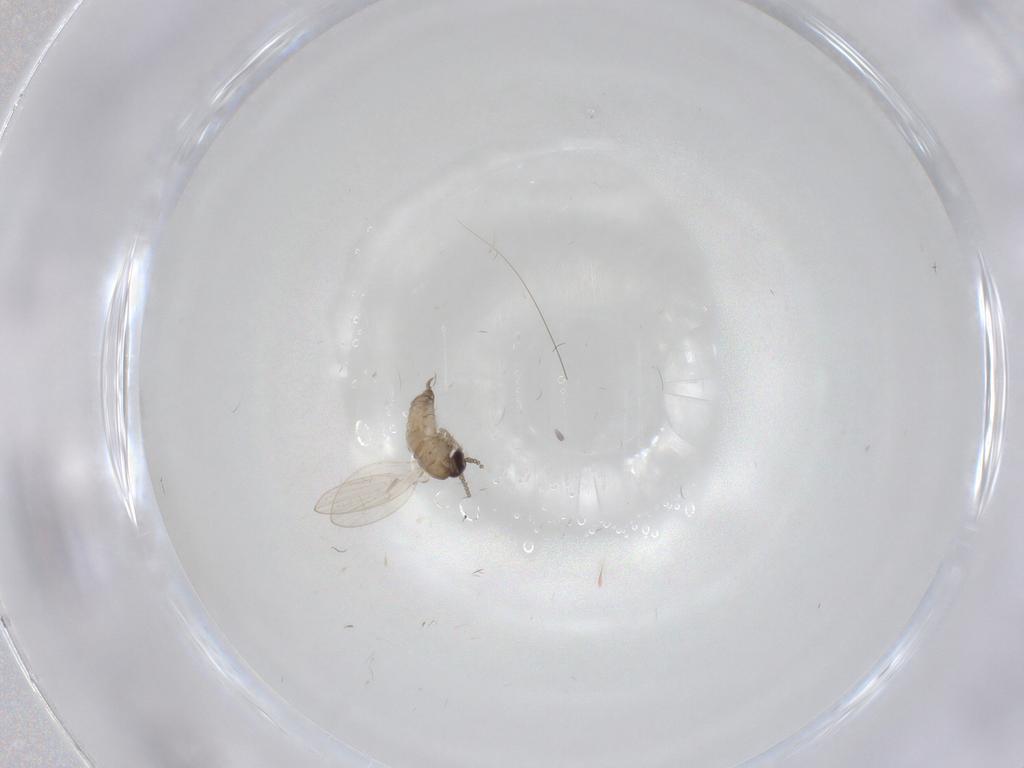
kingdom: Animalia
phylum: Arthropoda
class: Insecta
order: Diptera
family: Psychodidae
